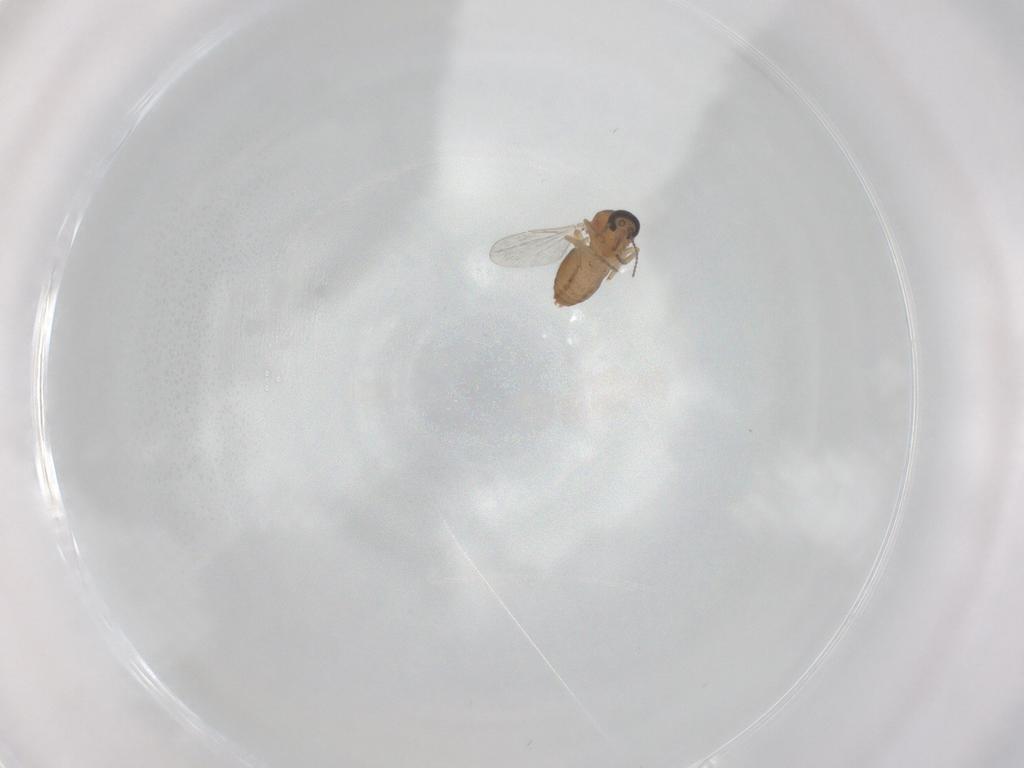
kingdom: Animalia
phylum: Arthropoda
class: Insecta
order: Diptera
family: Ceratopogonidae
